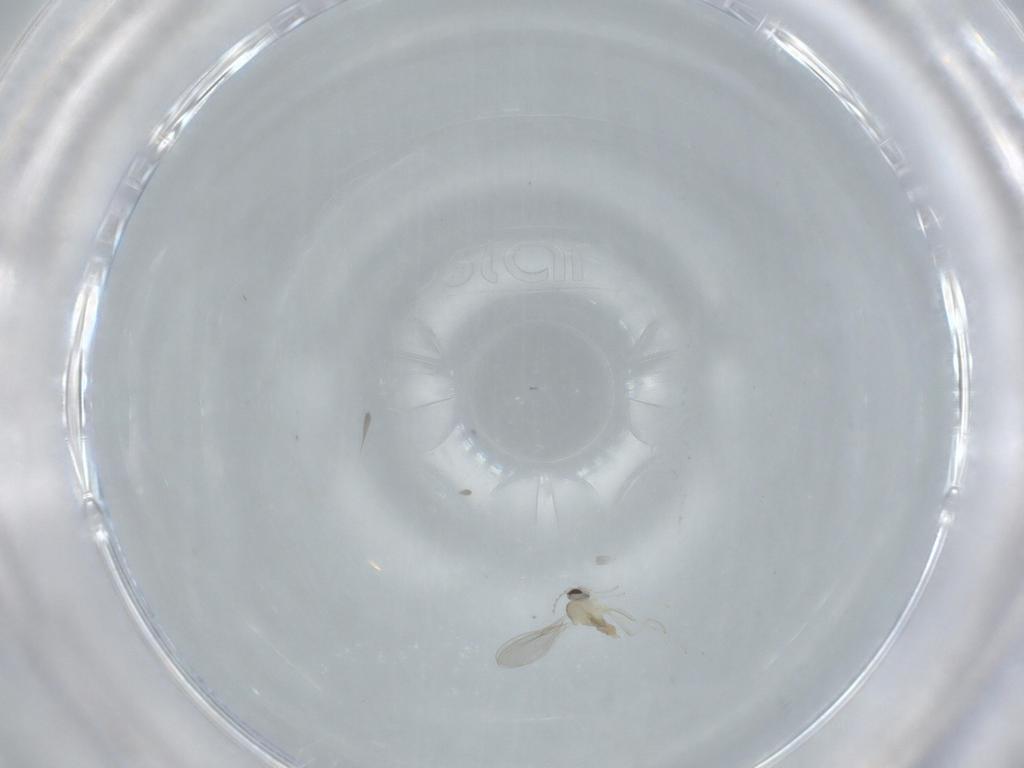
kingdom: Animalia
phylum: Arthropoda
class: Insecta
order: Diptera
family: Cecidomyiidae
